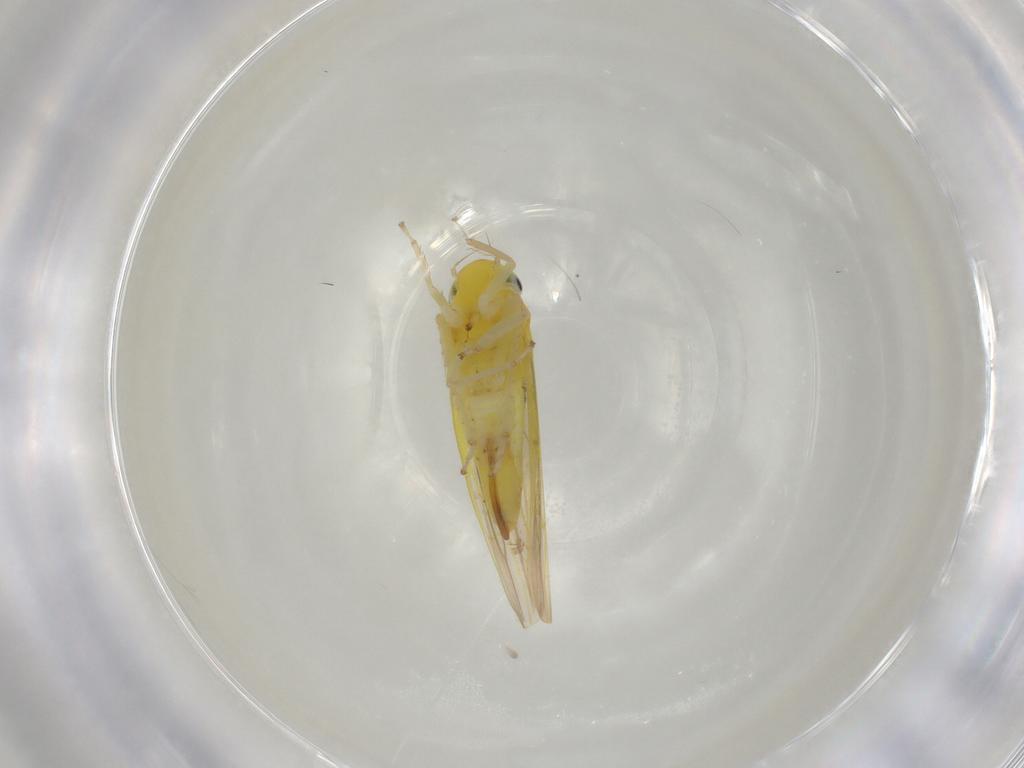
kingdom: Animalia
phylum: Arthropoda
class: Insecta
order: Hemiptera
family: Cicadellidae
